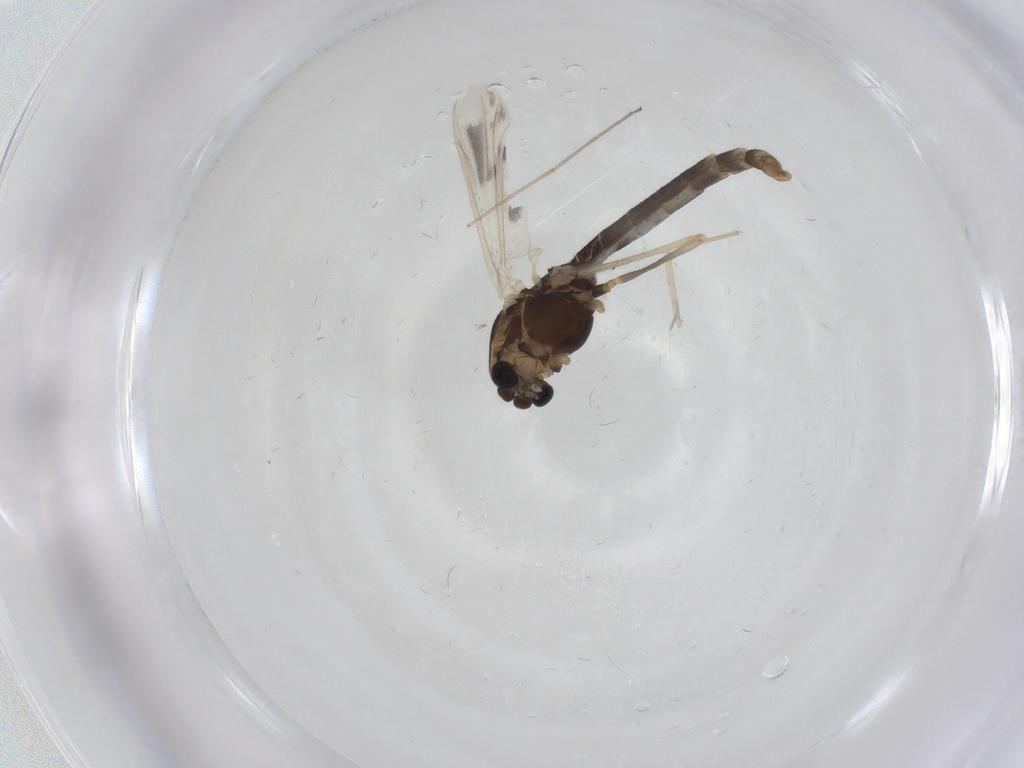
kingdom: Animalia
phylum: Arthropoda
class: Insecta
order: Diptera
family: Chironomidae
